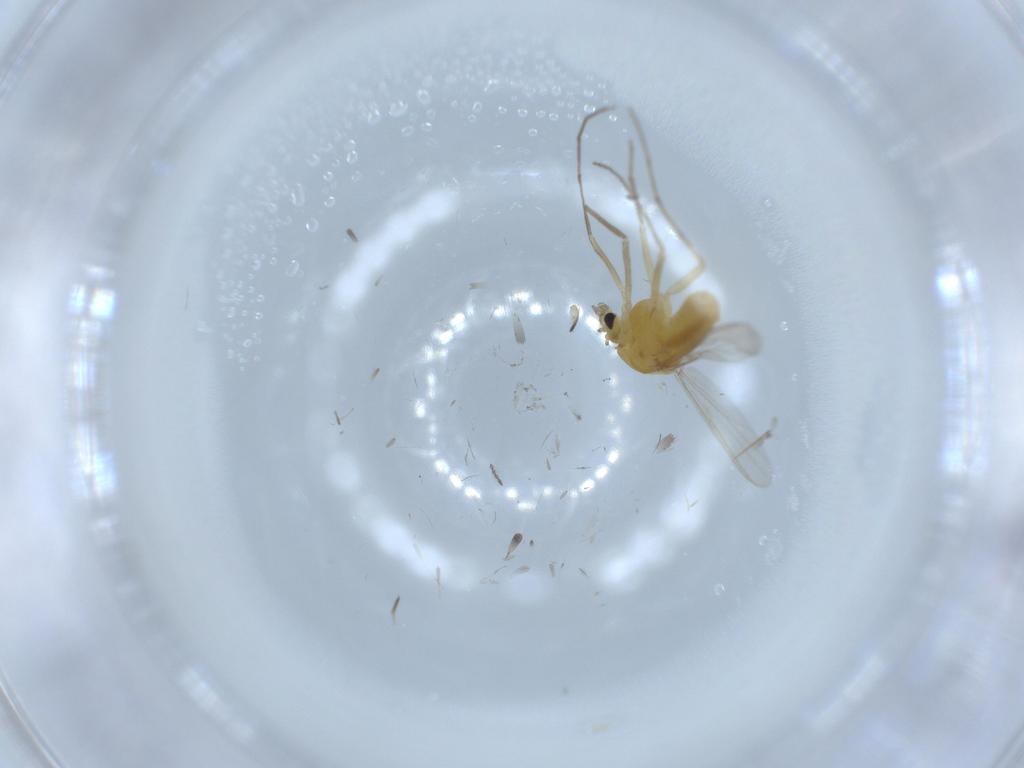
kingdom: Animalia
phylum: Arthropoda
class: Insecta
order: Diptera
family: Chironomidae
